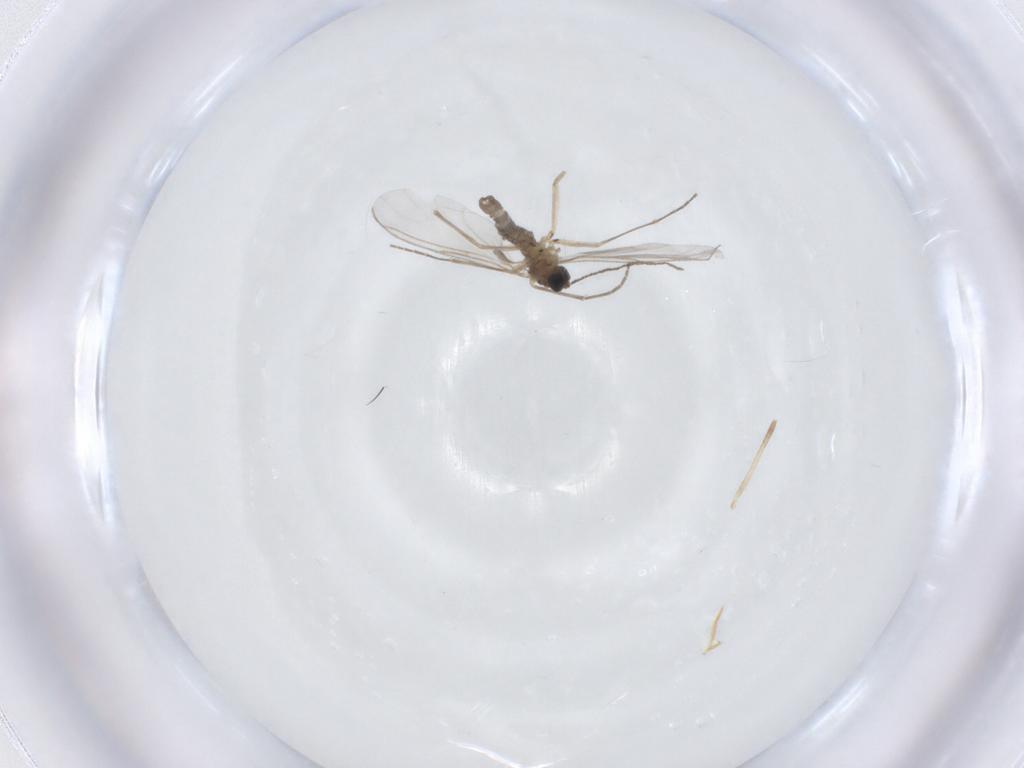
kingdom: Animalia
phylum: Arthropoda
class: Insecta
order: Diptera
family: Sciaridae
